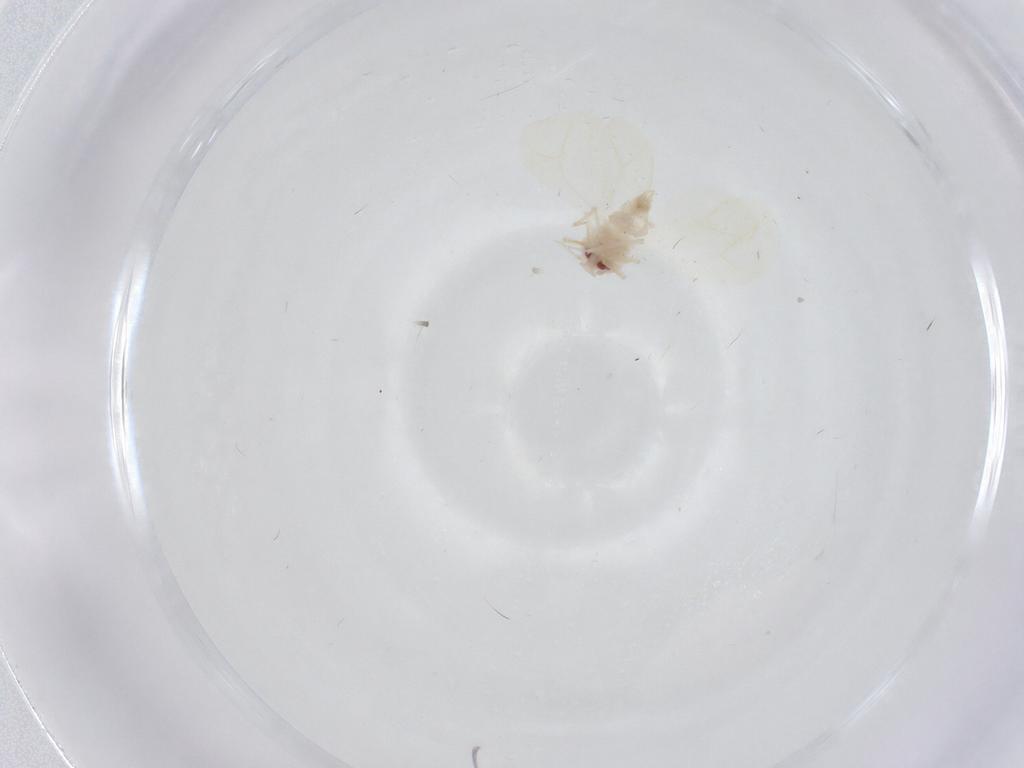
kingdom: Animalia
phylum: Arthropoda
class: Insecta
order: Hemiptera
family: Aleyrodidae
